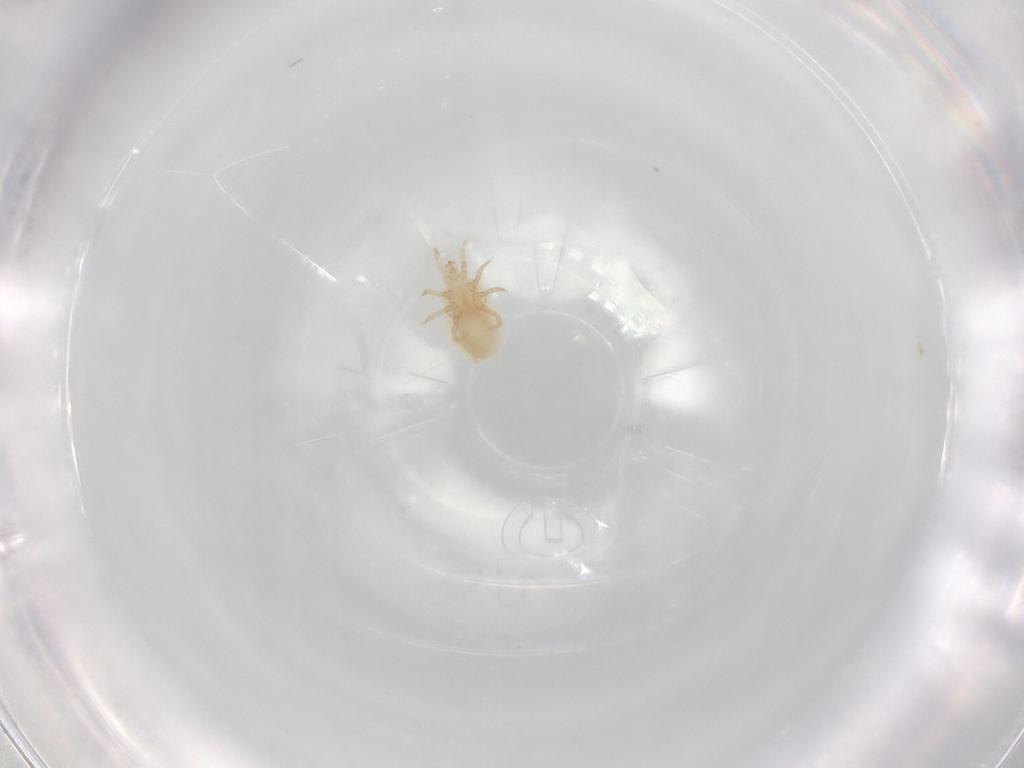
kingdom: Animalia
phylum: Arthropoda
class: Arachnida
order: Mesostigmata
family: Laelapidae
